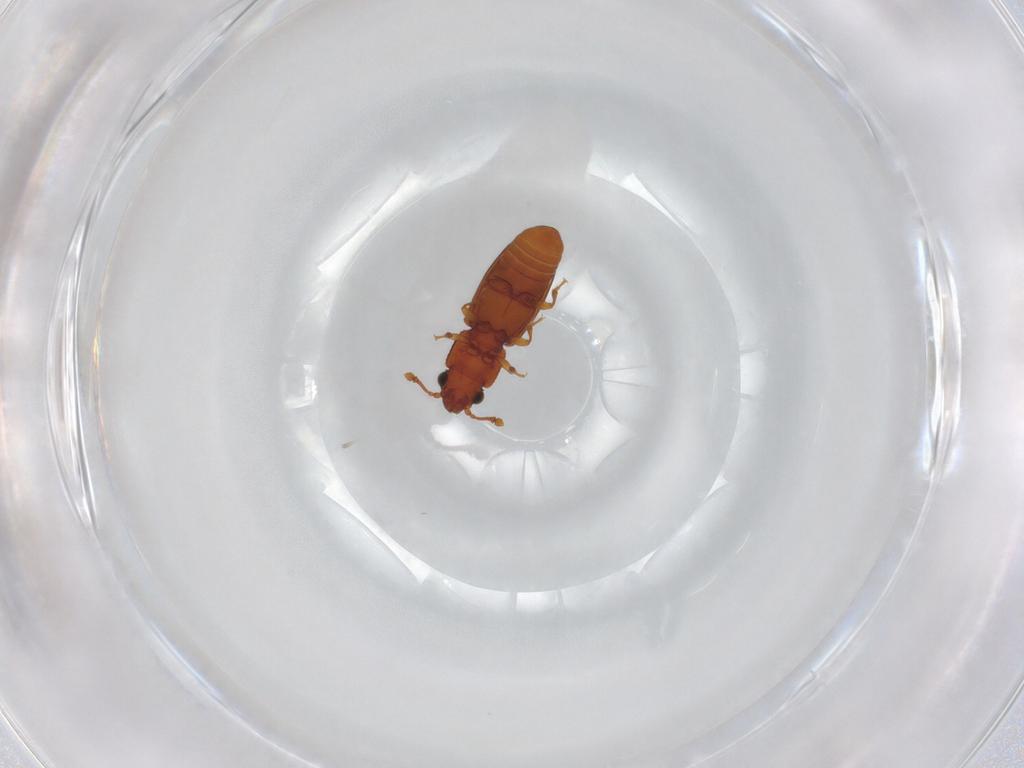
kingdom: Animalia
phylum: Arthropoda
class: Insecta
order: Coleoptera
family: Monotomidae
